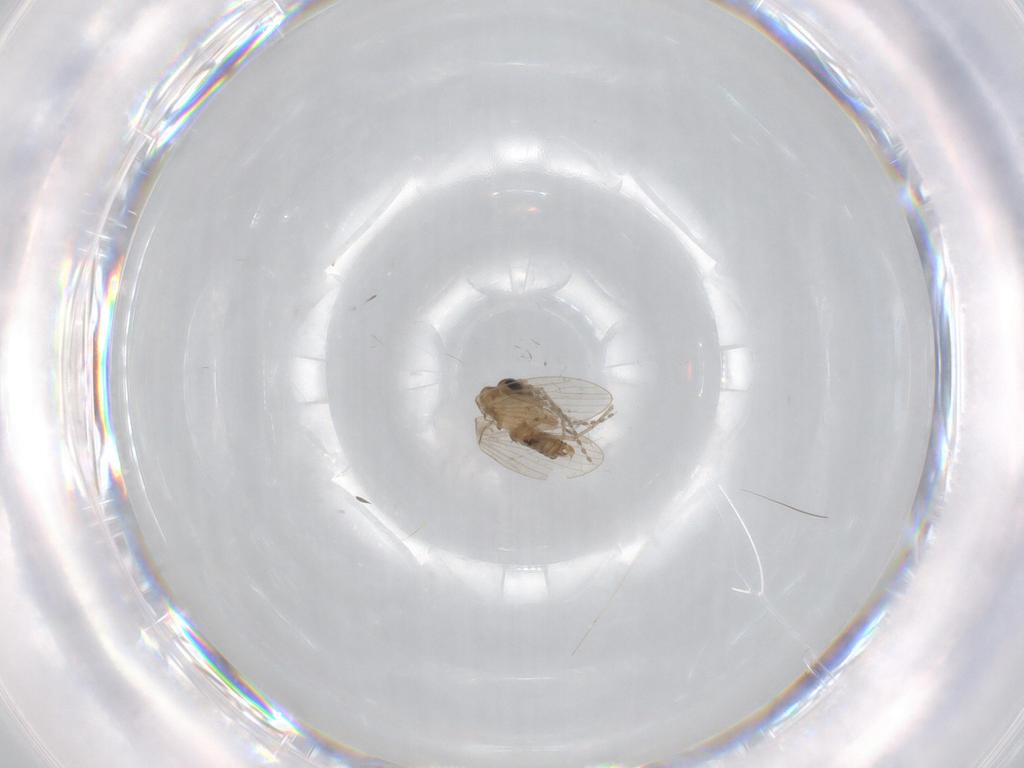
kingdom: Animalia
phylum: Arthropoda
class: Insecta
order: Diptera
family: Psychodidae
